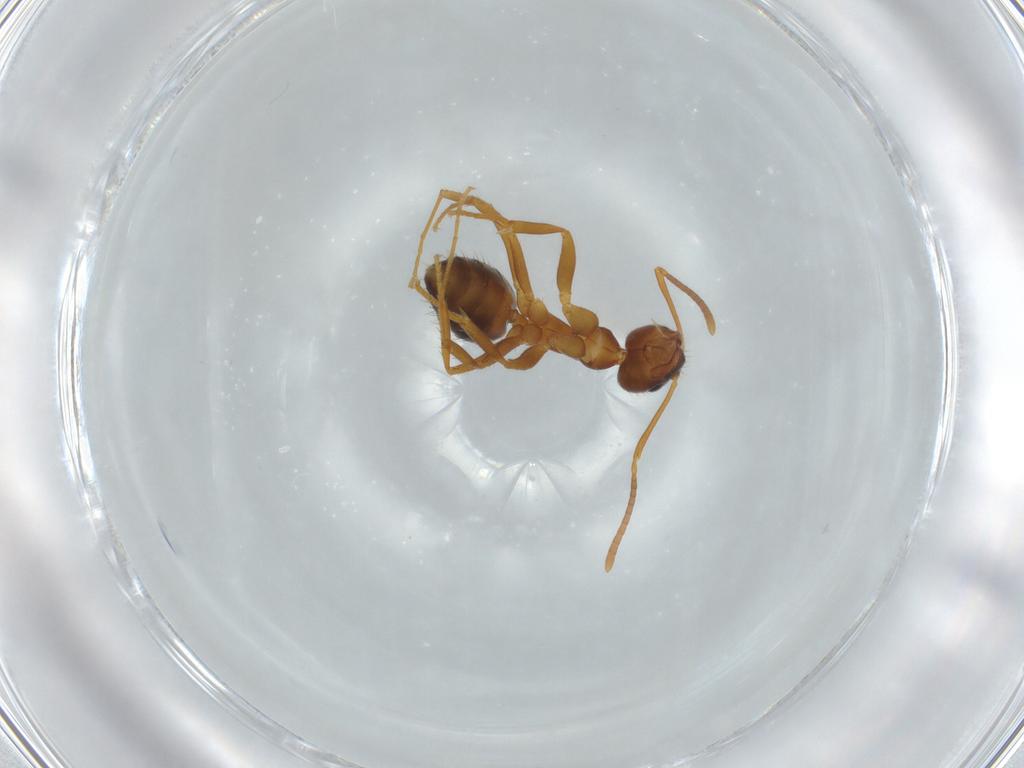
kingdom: Animalia
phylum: Arthropoda
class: Insecta
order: Hymenoptera
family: Formicidae
